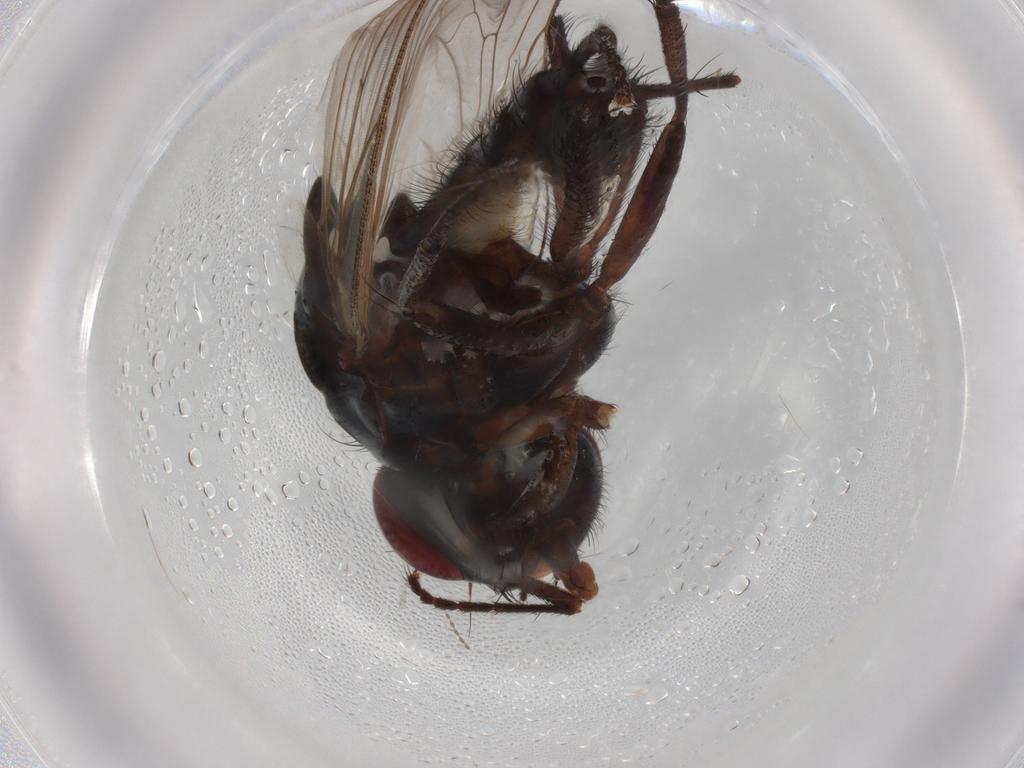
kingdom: Animalia
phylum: Arthropoda
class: Insecta
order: Diptera
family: Anthomyiidae
